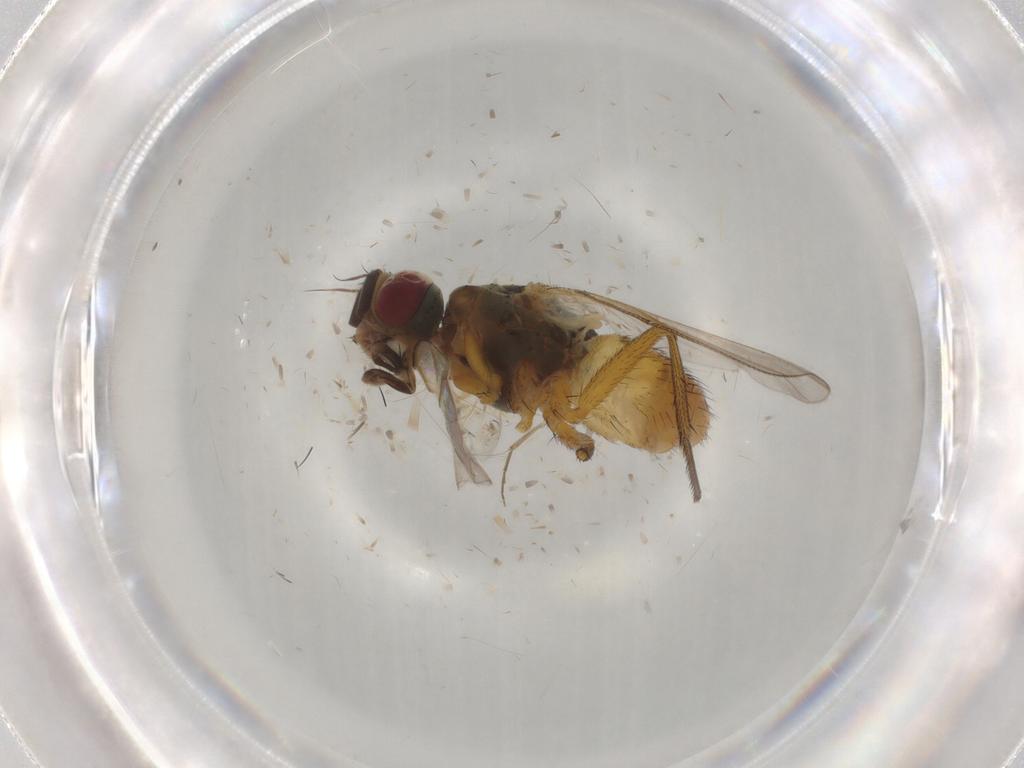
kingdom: Animalia
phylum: Arthropoda
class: Insecta
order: Diptera
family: Muscidae
